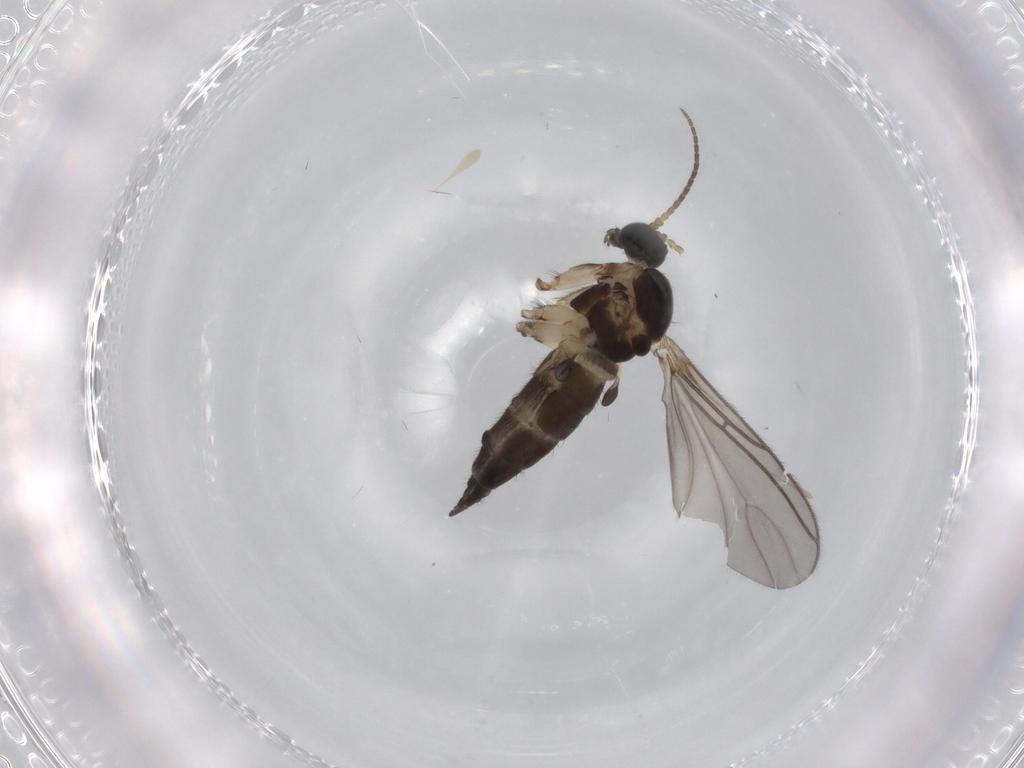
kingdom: Animalia
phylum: Arthropoda
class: Insecta
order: Diptera
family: Sciaridae
